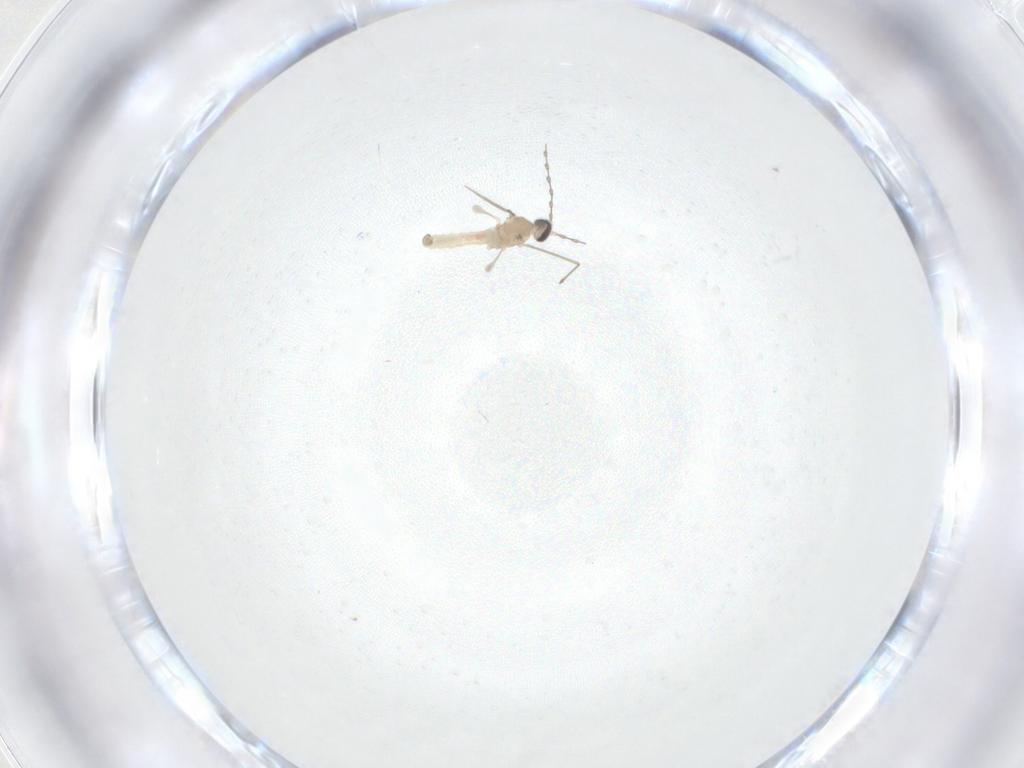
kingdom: Animalia
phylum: Arthropoda
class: Insecta
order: Diptera
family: Cecidomyiidae
